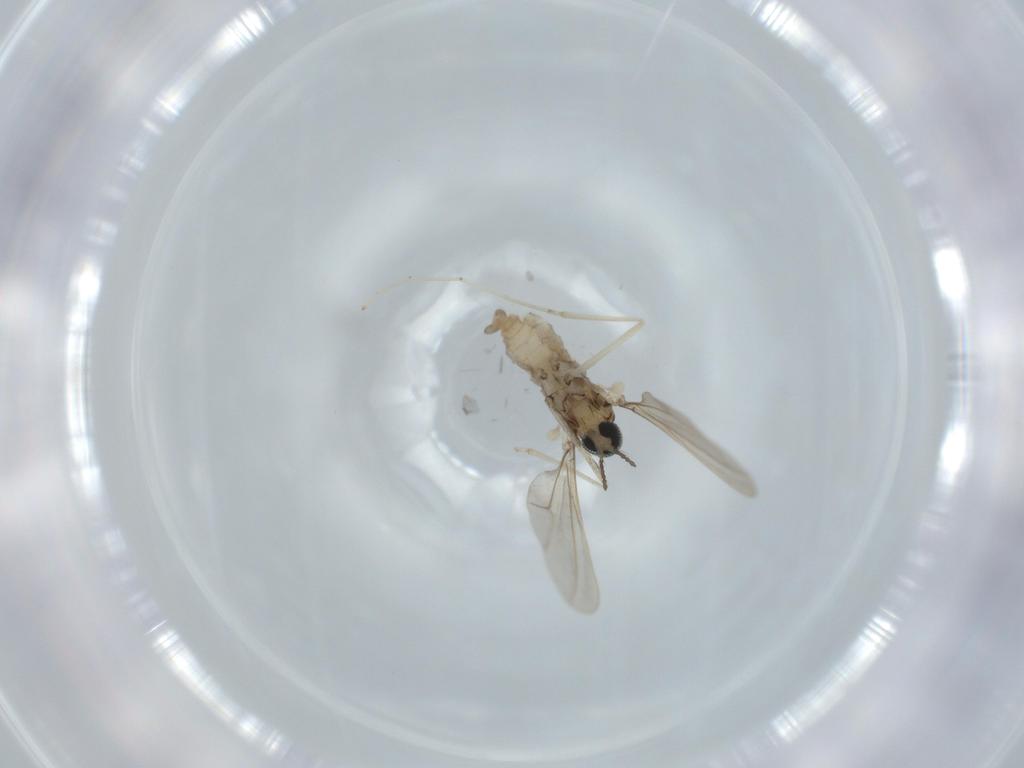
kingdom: Animalia
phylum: Arthropoda
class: Insecta
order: Diptera
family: Cecidomyiidae
